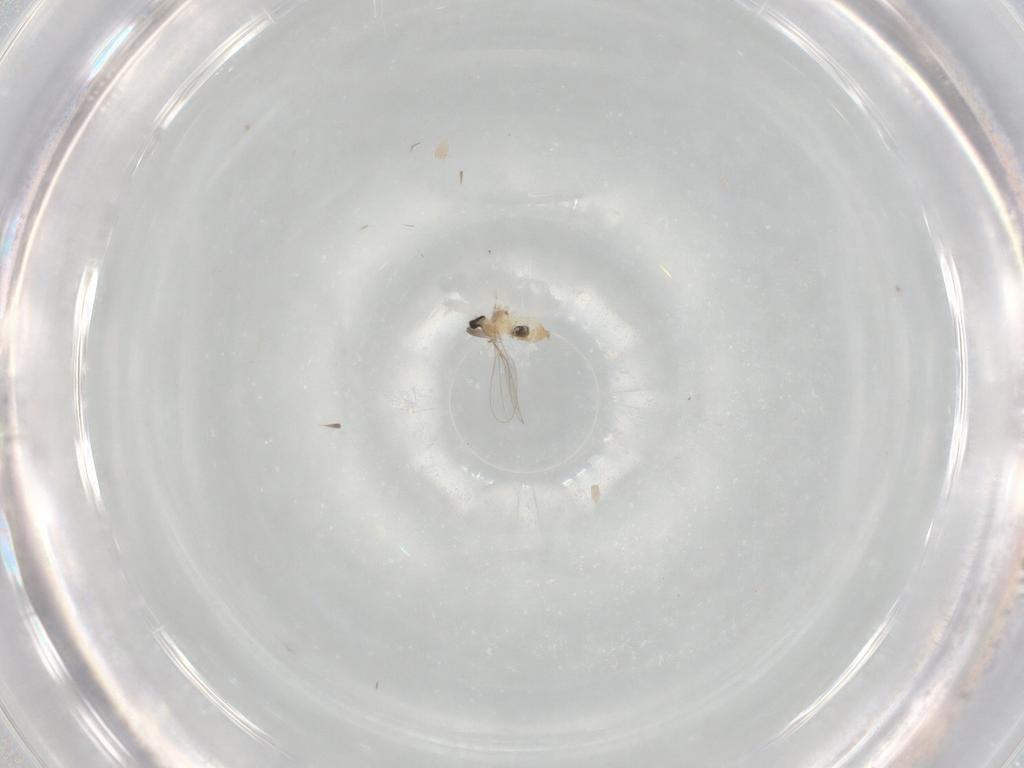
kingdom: Animalia
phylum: Arthropoda
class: Insecta
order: Diptera
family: Cecidomyiidae
